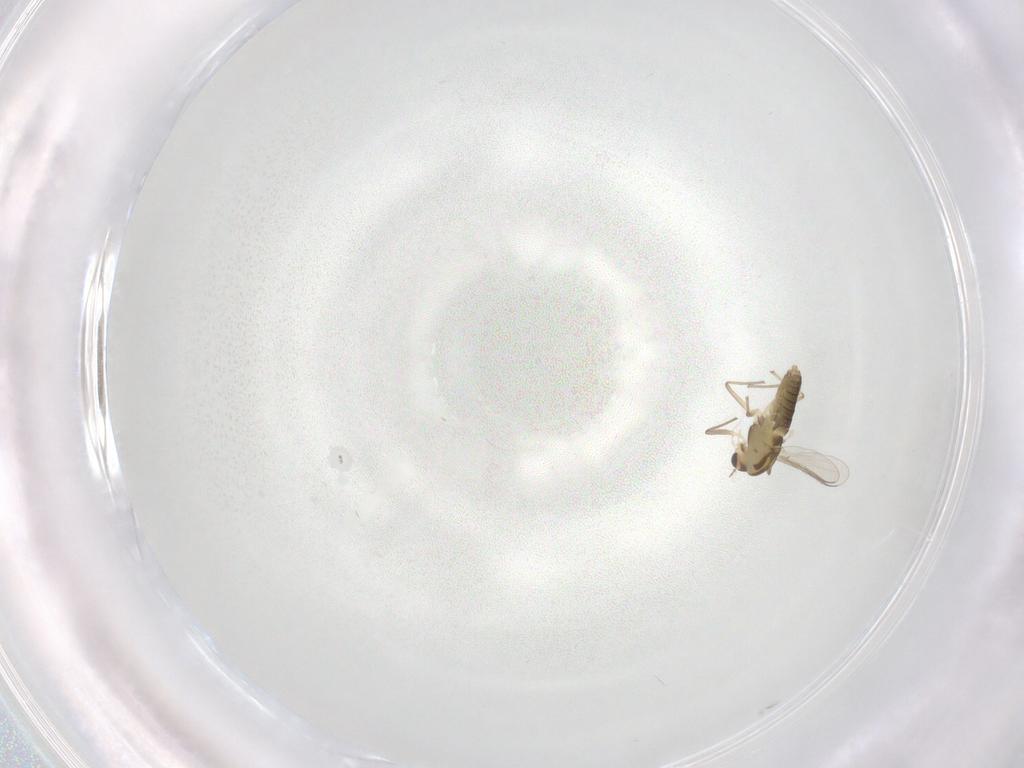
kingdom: Animalia
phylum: Arthropoda
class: Insecta
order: Diptera
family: Chironomidae
